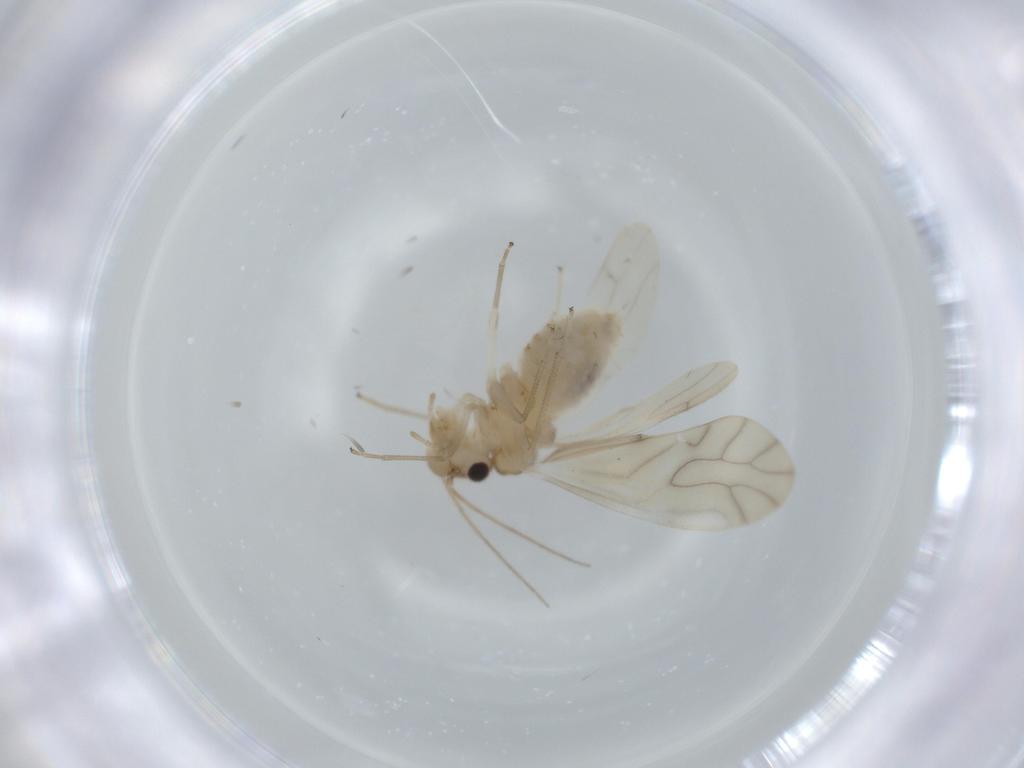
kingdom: Animalia
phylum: Arthropoda
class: Insecta
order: Psocodea
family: Caeciliusidae
